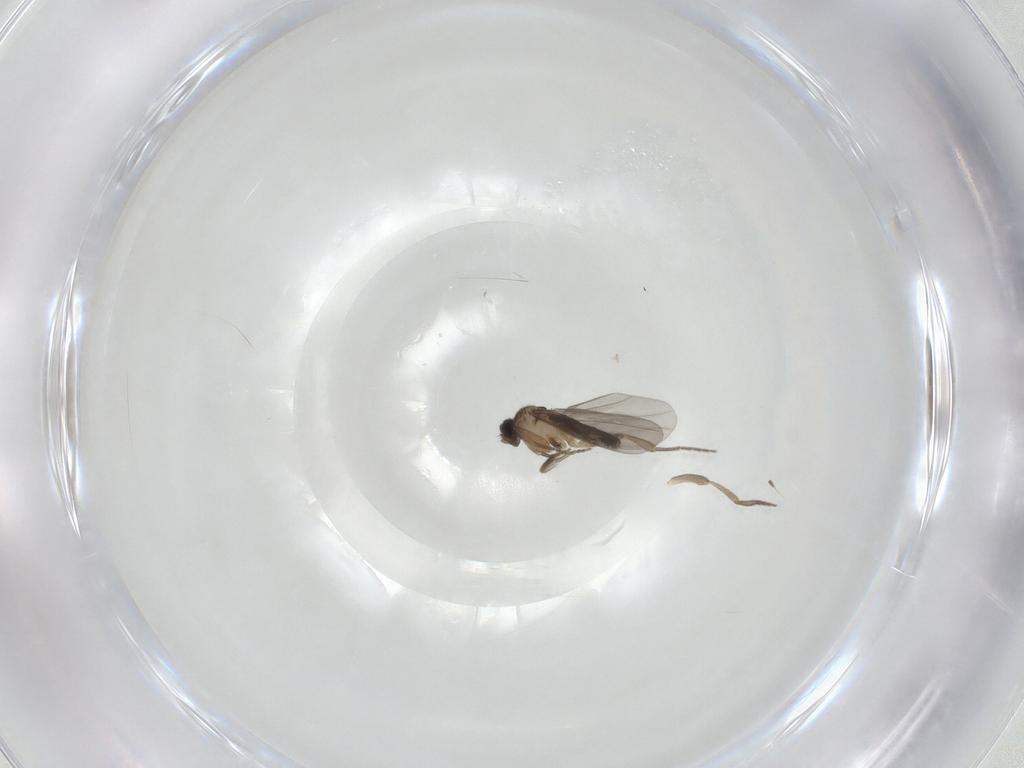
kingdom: Animalia
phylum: Arthropoda
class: Insecta
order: Diptera
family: Phoridae
